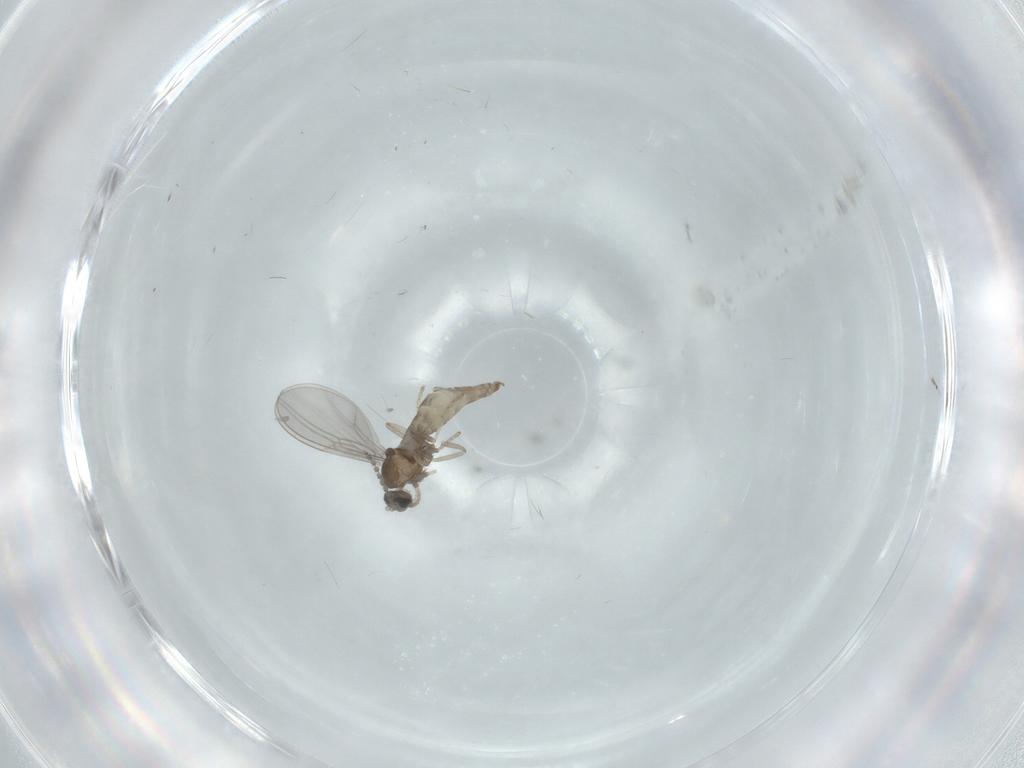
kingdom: Animalia
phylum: Arthropoda
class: Insecta
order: Diptera
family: Cecidomyiidae
